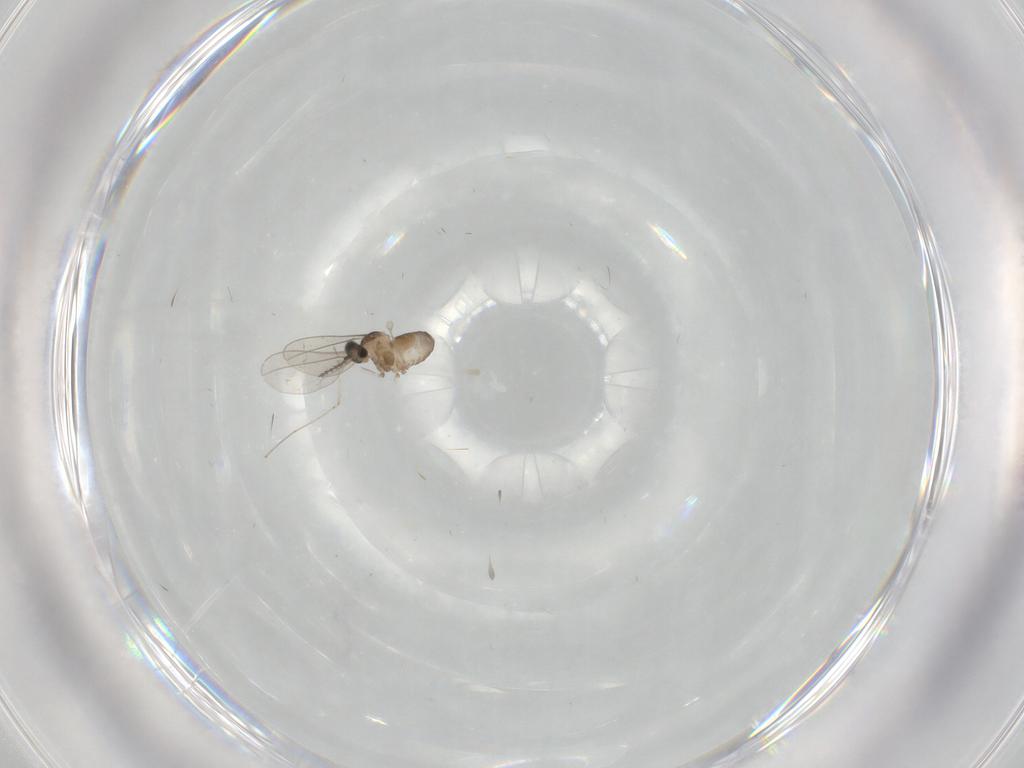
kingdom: Animalia
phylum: Arthropoda
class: Insecta
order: Diptera
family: Cecidomyiidae
